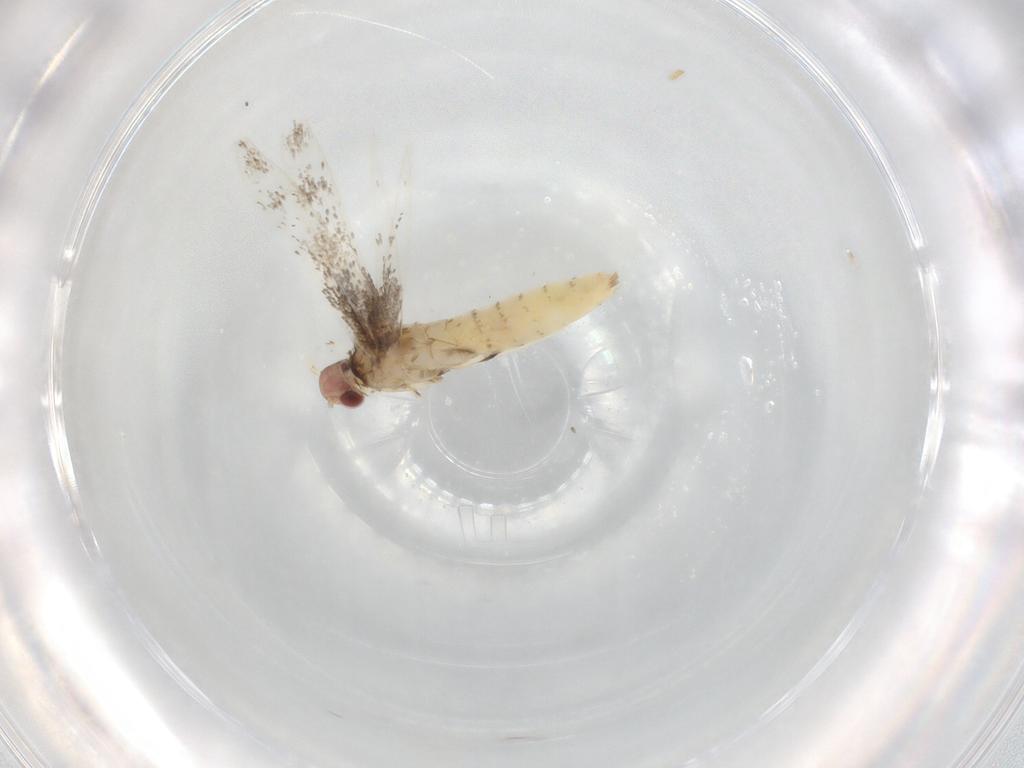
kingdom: Animalia
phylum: Arthropoda
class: Insecta
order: Lepidoptera
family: Gracillariidae
